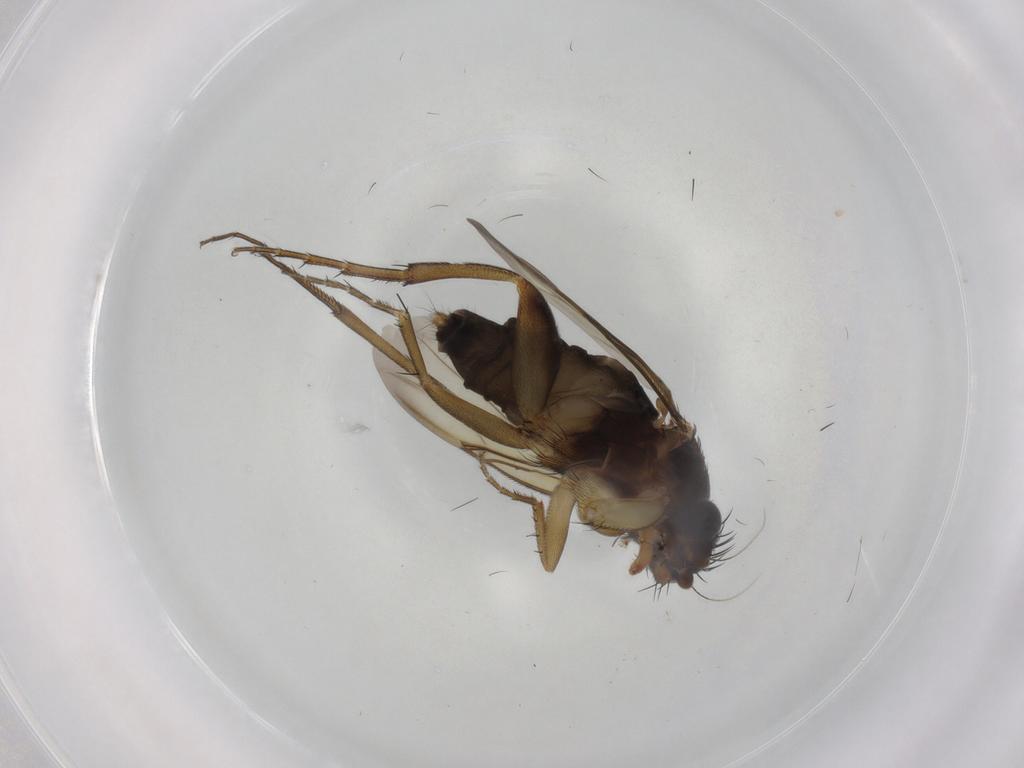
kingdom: Animalia
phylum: Arthropoda
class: Insecta
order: Diptera
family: Phoridae
